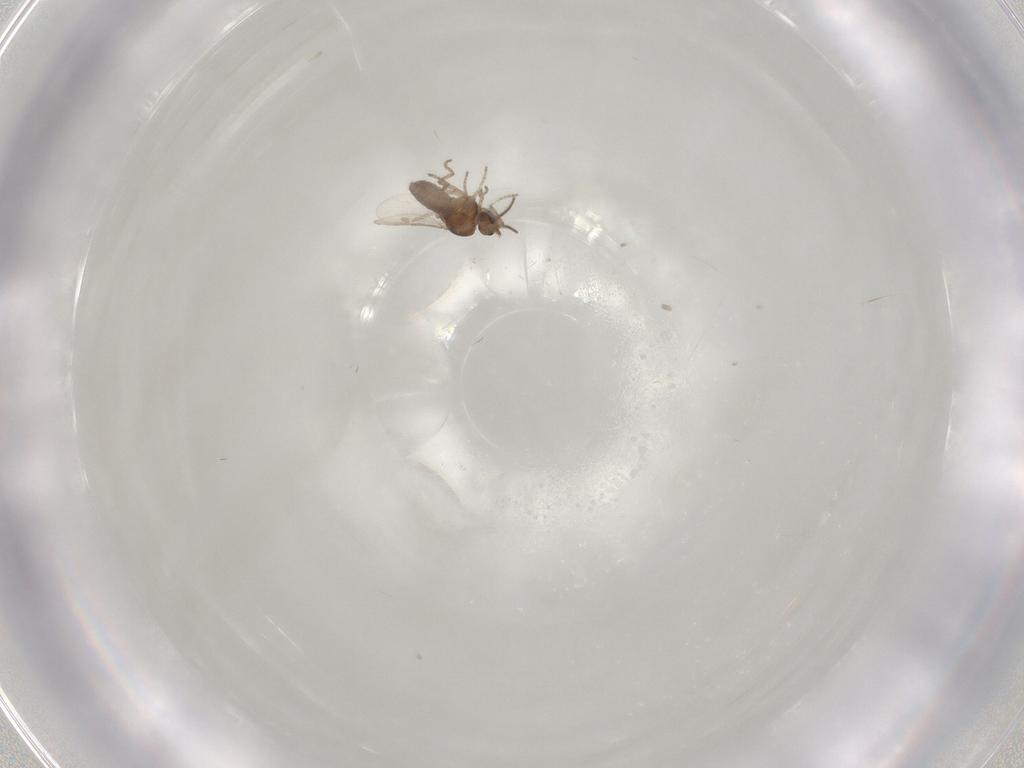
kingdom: Animalia
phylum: Arthropoda
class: Insecta
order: Diptera
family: Ceratopogonidae
